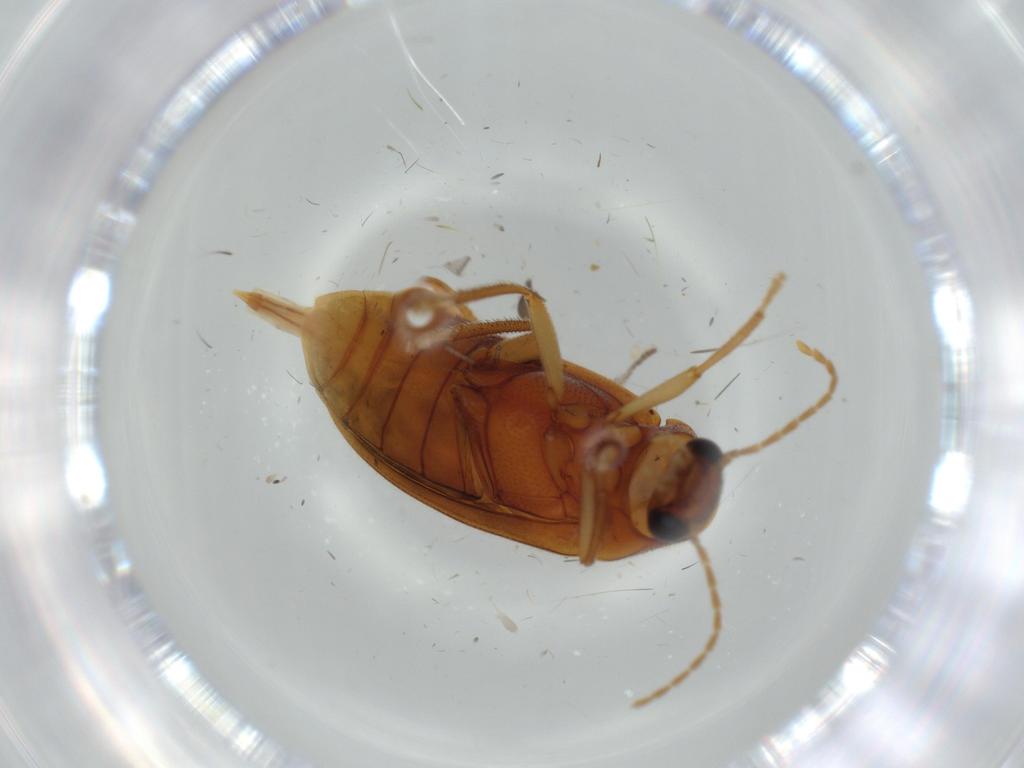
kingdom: Animalia
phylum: Arthropoda
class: Insecta
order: Coleoptera
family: Ptilodactylidae
